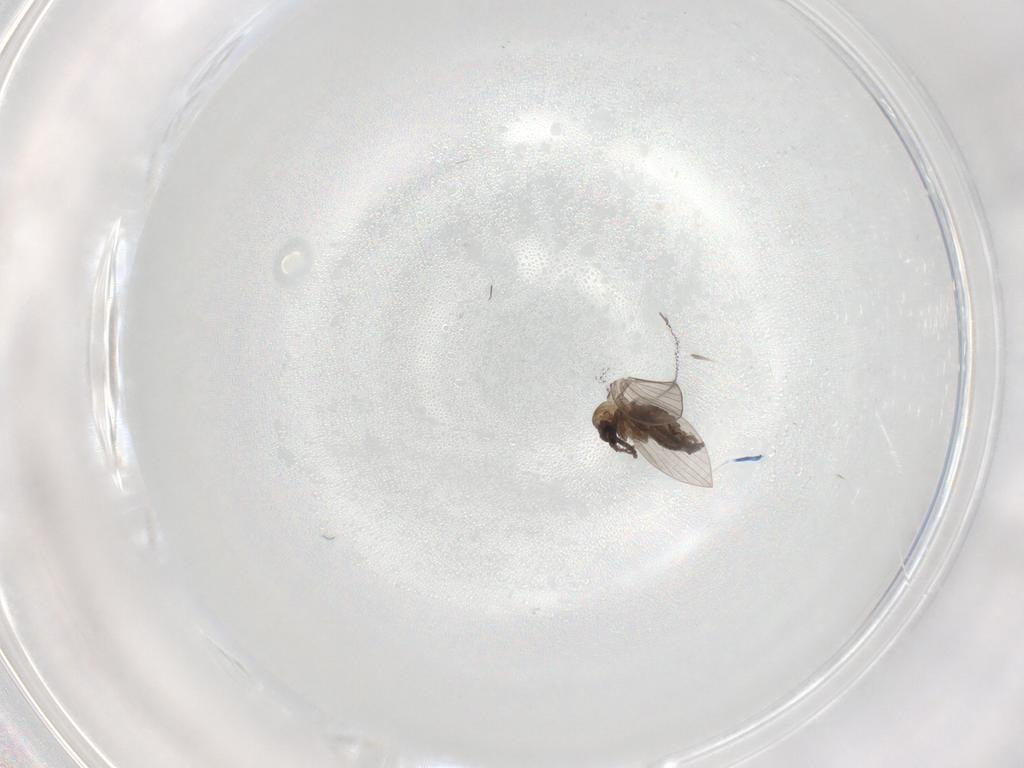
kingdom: Animalia
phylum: Arthropoda
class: Insecta
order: Diptera
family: Psychodidae
